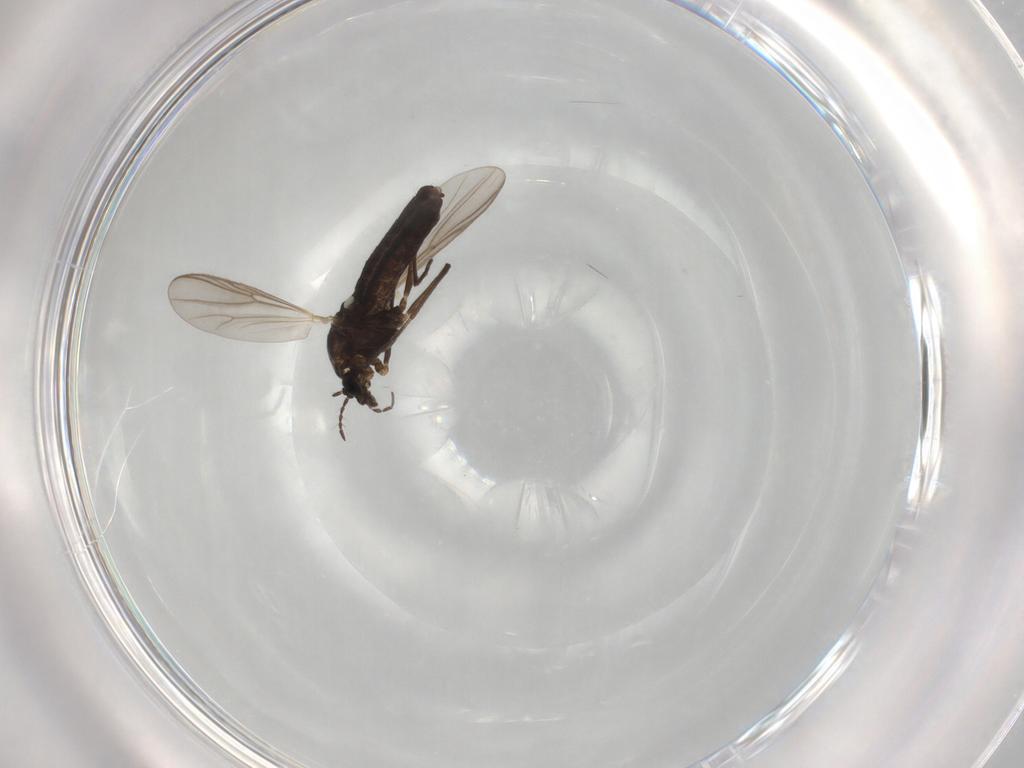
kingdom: Animalia
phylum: Arthropoda
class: Insecta
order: Diptera
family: Chironomidae
